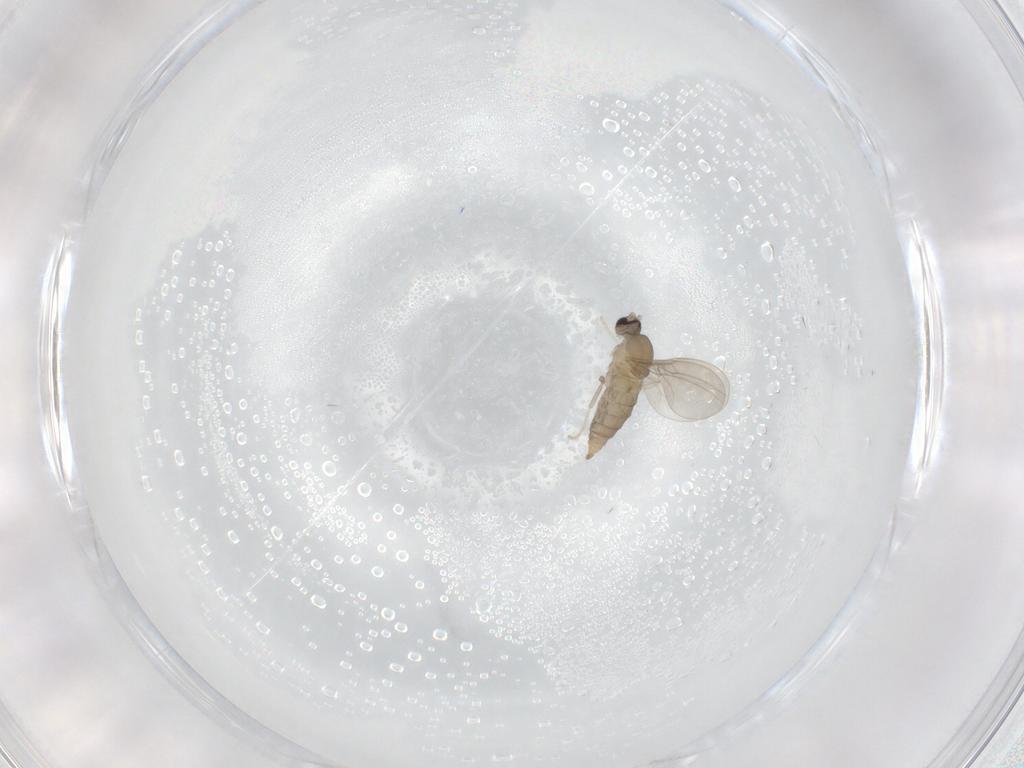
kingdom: Animalia
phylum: Arthropoda
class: Insecta
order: Diptera
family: Cecidomyiidae
